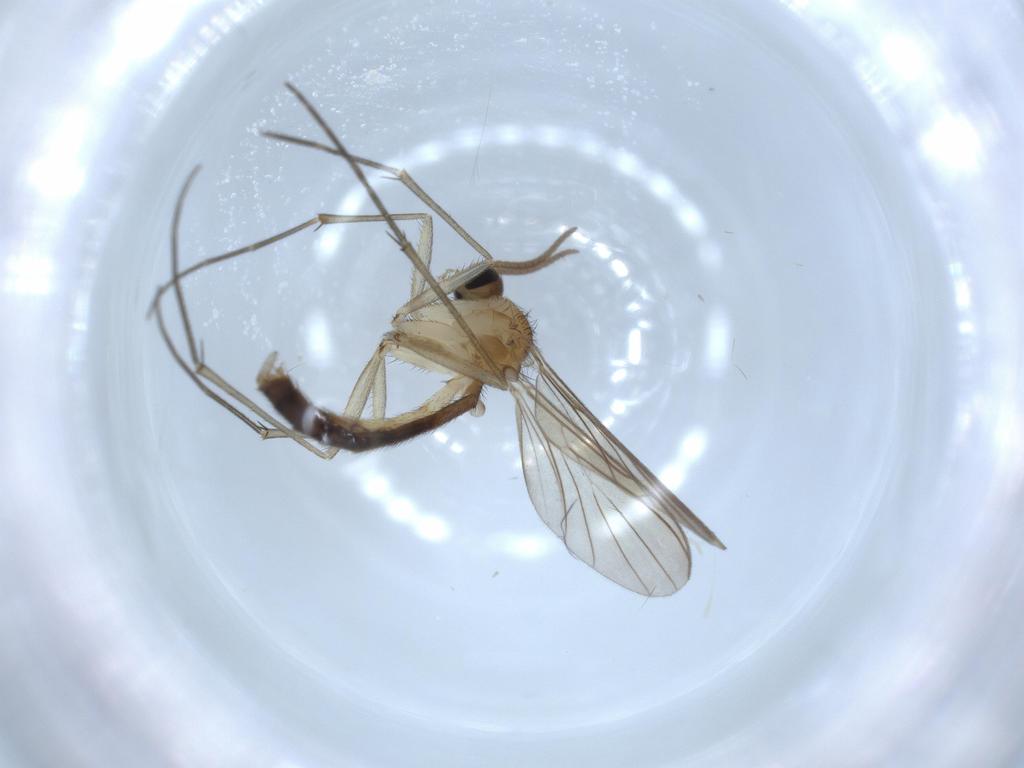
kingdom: Animalia
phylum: Arthropoda
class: Insecta
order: Diptera
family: Keroplatidae
